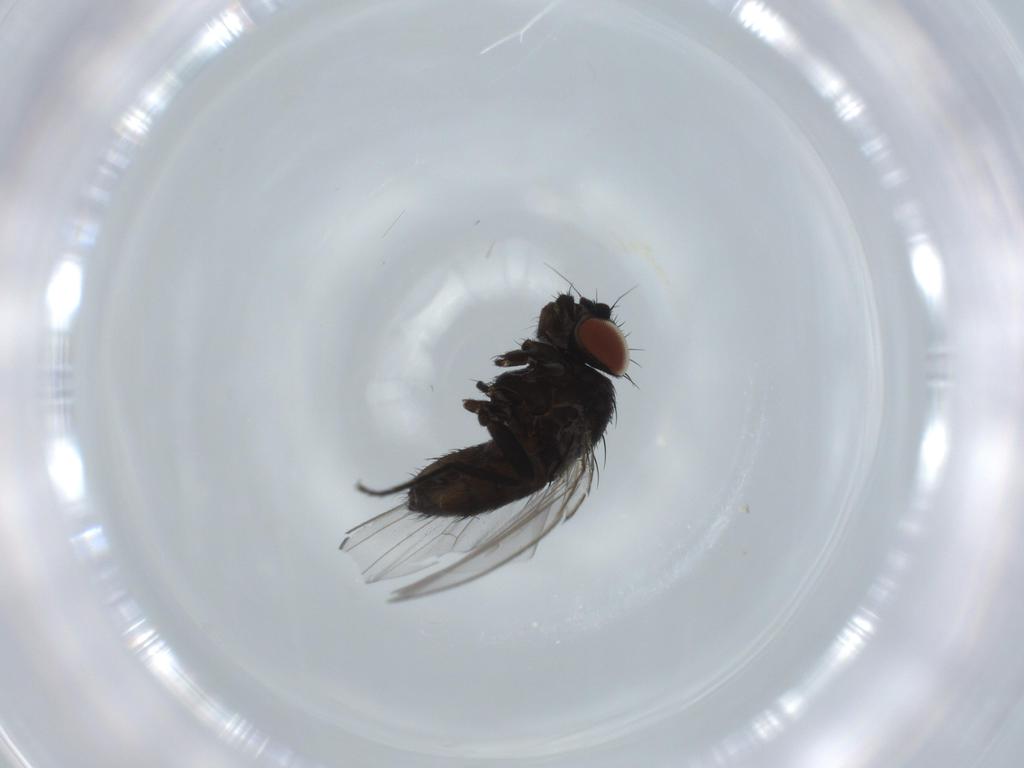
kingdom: Animalia
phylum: Arthropoda
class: Insecta
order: Diptera
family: Milichiidae
